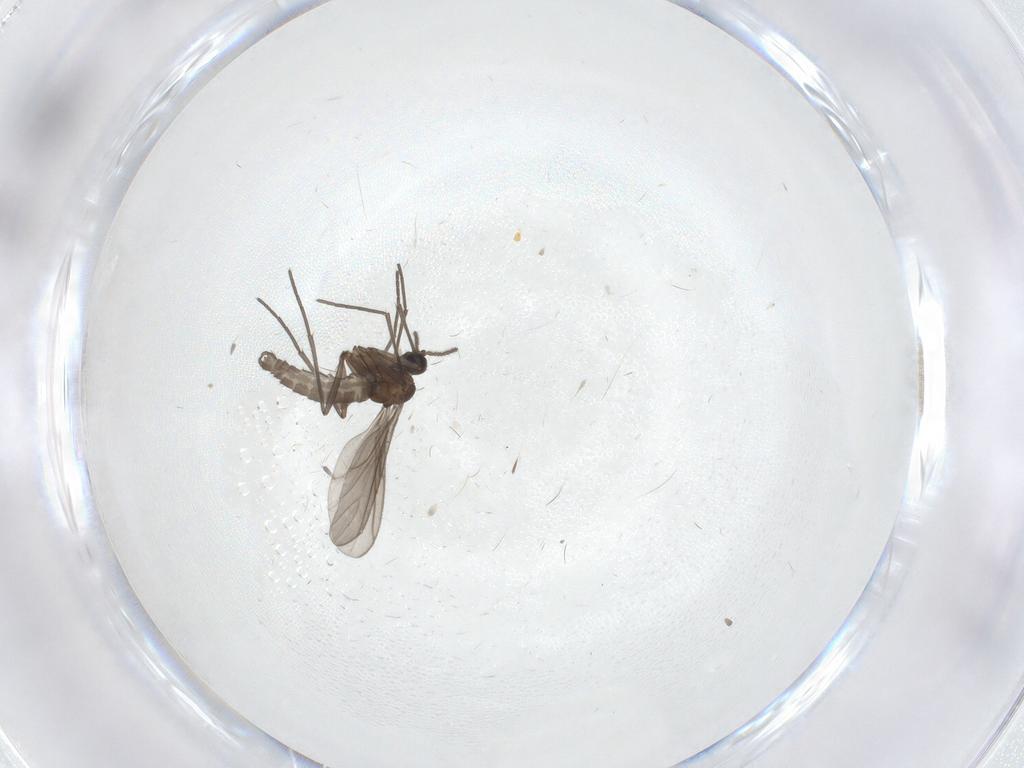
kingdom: Animalia
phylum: Arthropoda
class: Insecta
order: Diptera
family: Sciaridae
